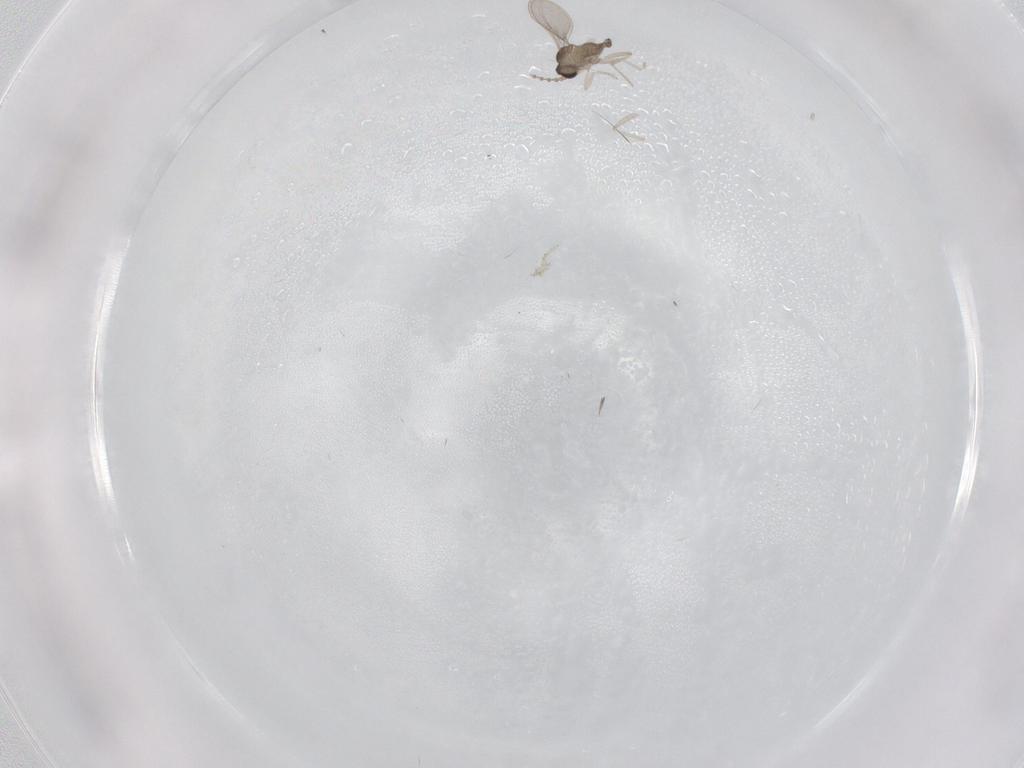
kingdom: Animalia
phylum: Arthropoda
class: Insecta
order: Diptera
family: Cecidomyiidae
